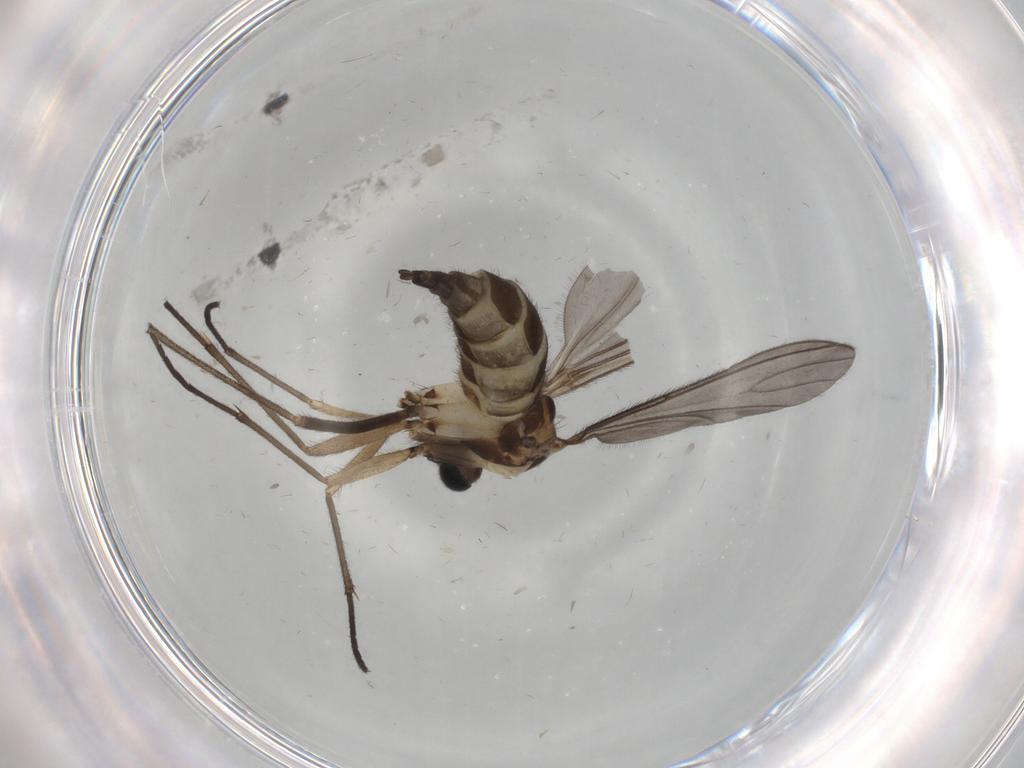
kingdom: Animalia
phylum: Arthropoda
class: Insecta
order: Diptera
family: Sciaridae
